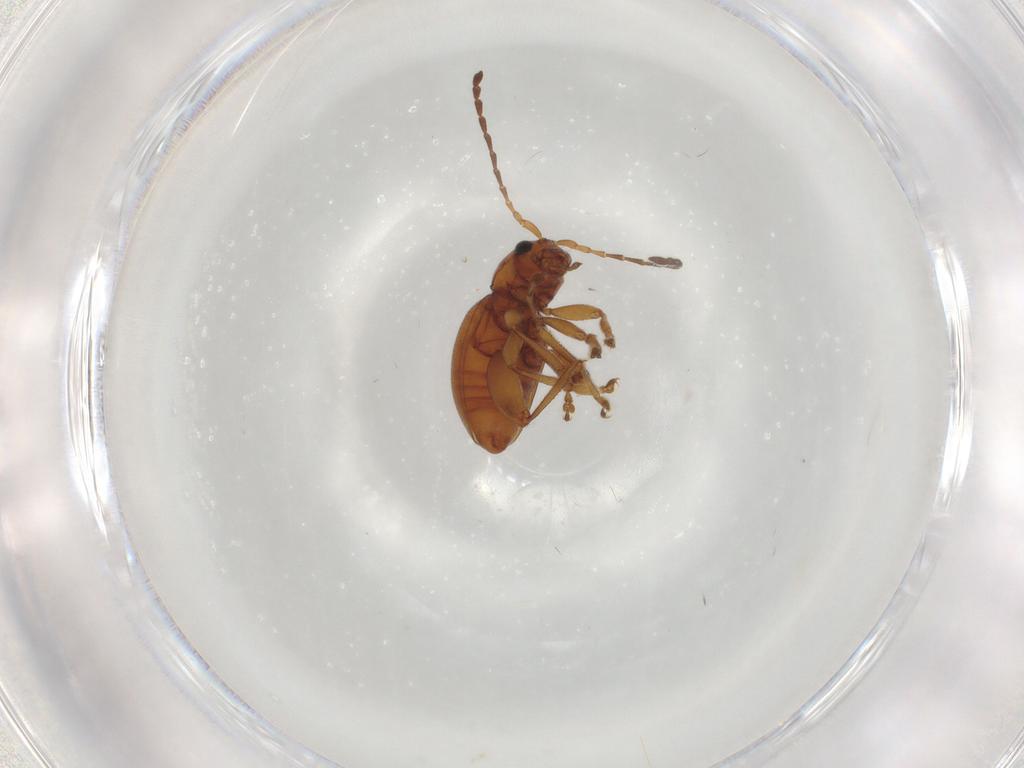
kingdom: Animalia
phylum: Arthropoda
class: Insecta
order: Coleoptera
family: Chrysomelidae
